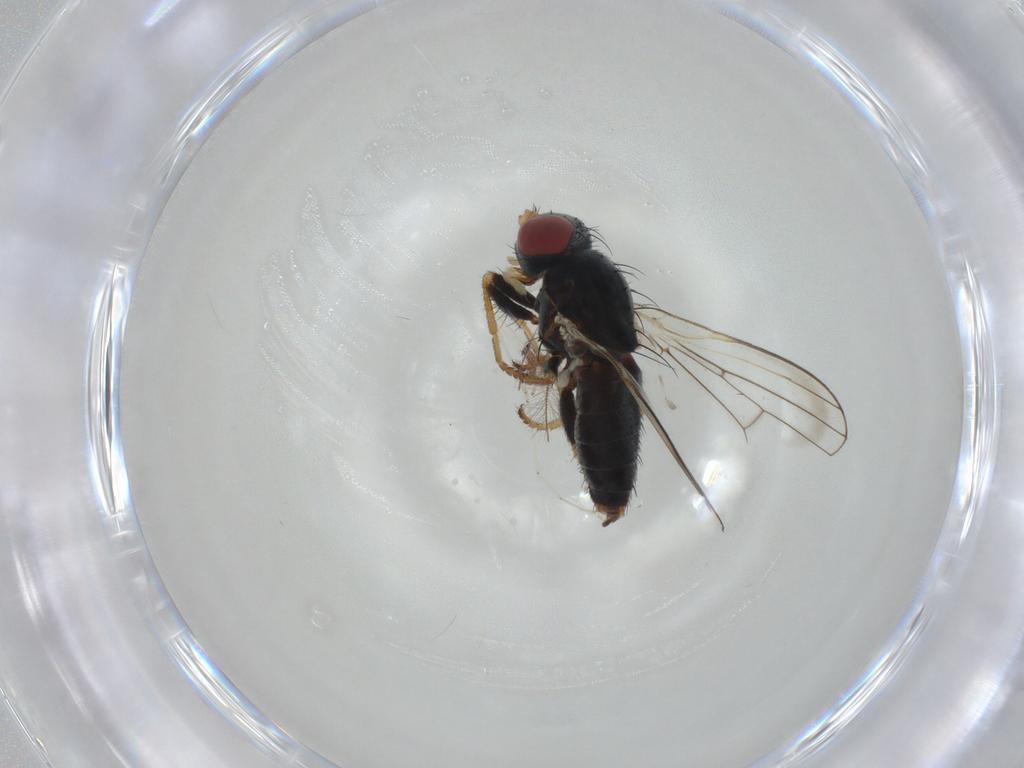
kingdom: Animalia
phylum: Arthropoda
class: Insecta
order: Diptera
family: Chamaemyiidae
